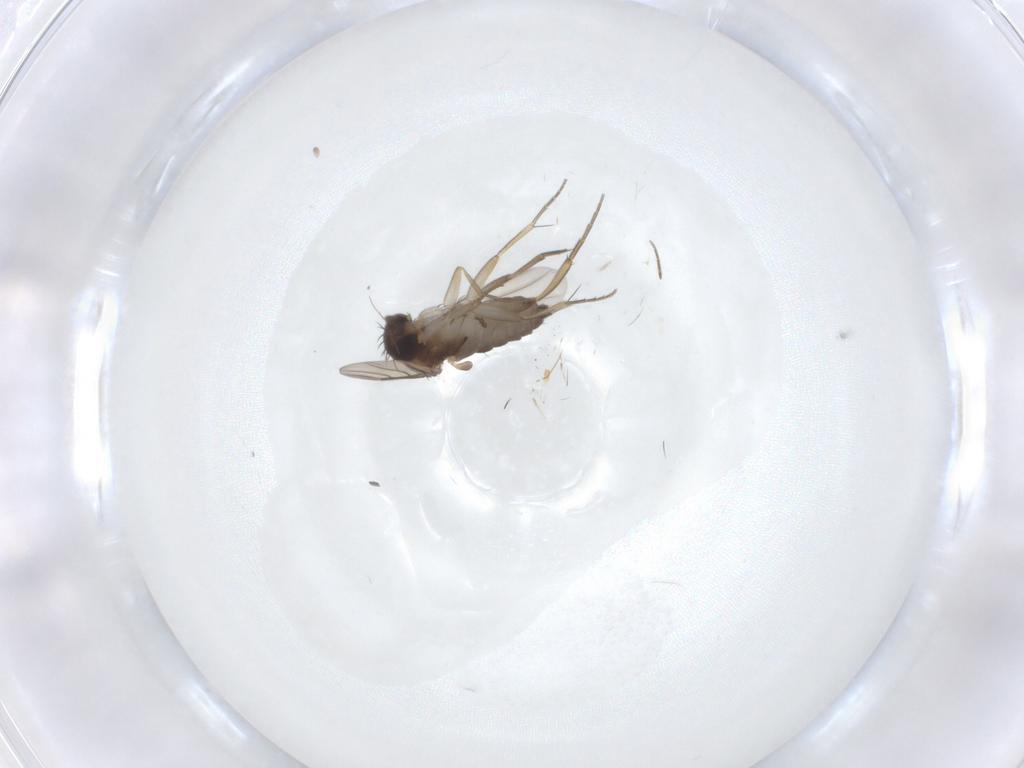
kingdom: Animalia
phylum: Arthropoda
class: Insecta
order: Diptera
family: Phoridae
